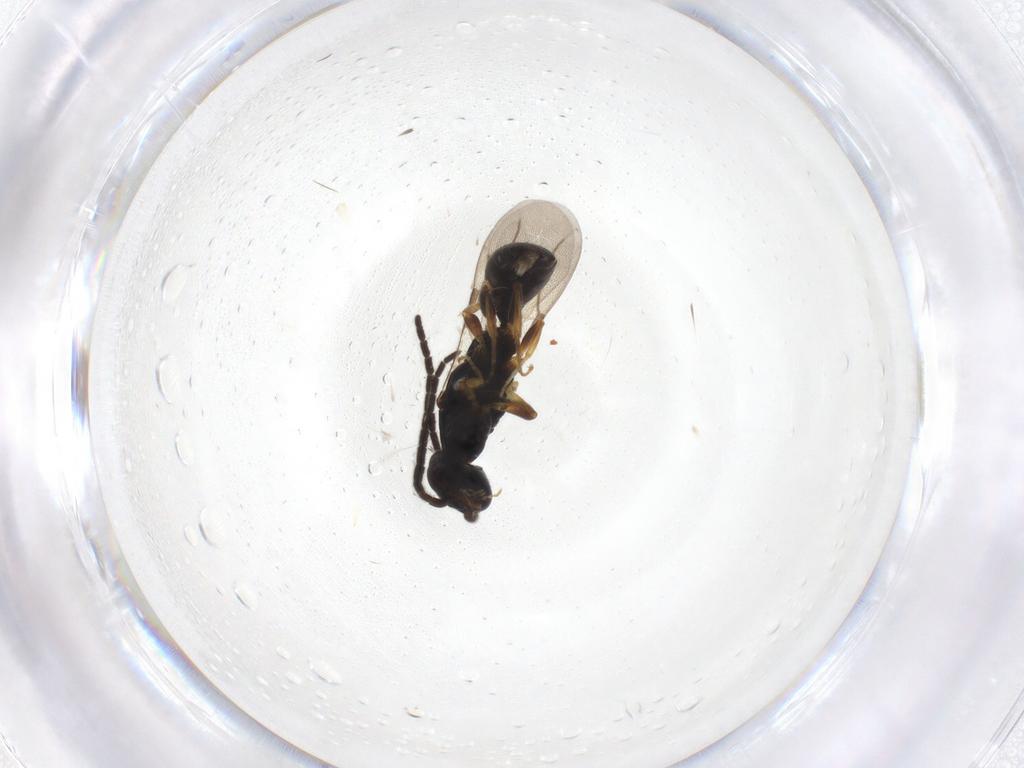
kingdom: Animalia
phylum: Arthropoda
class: Insecta
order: Hymenoptera
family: Bethylidae
